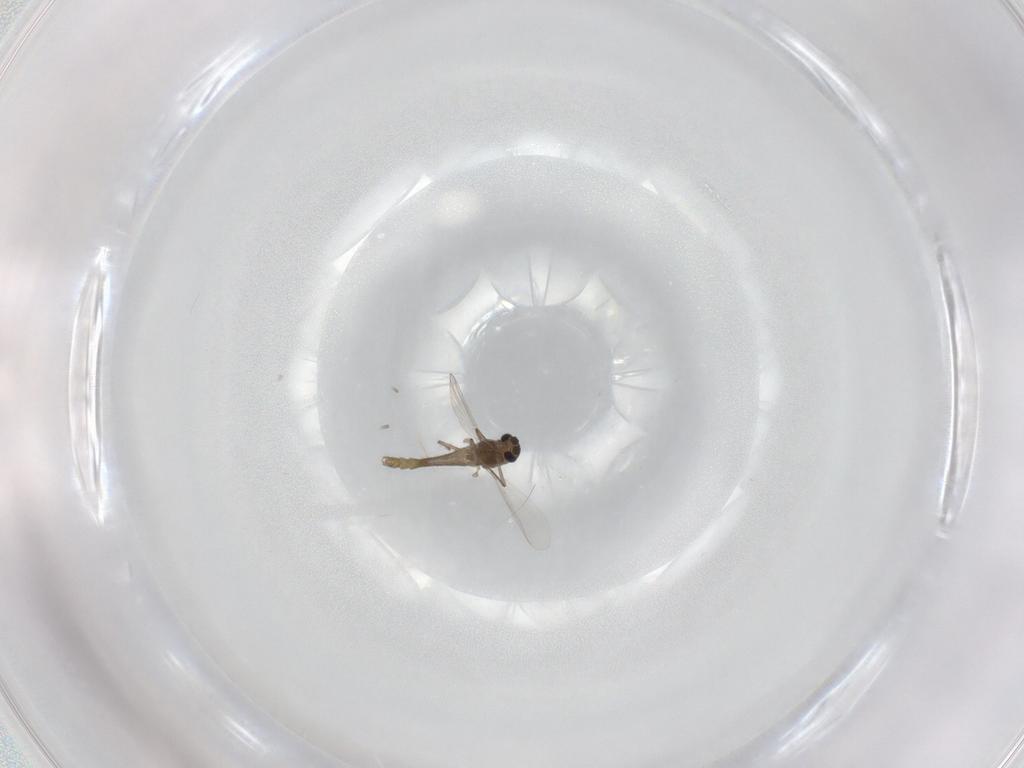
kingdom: Animalia
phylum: Arthropoda
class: Insecta
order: Diptera
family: Chironomidae
